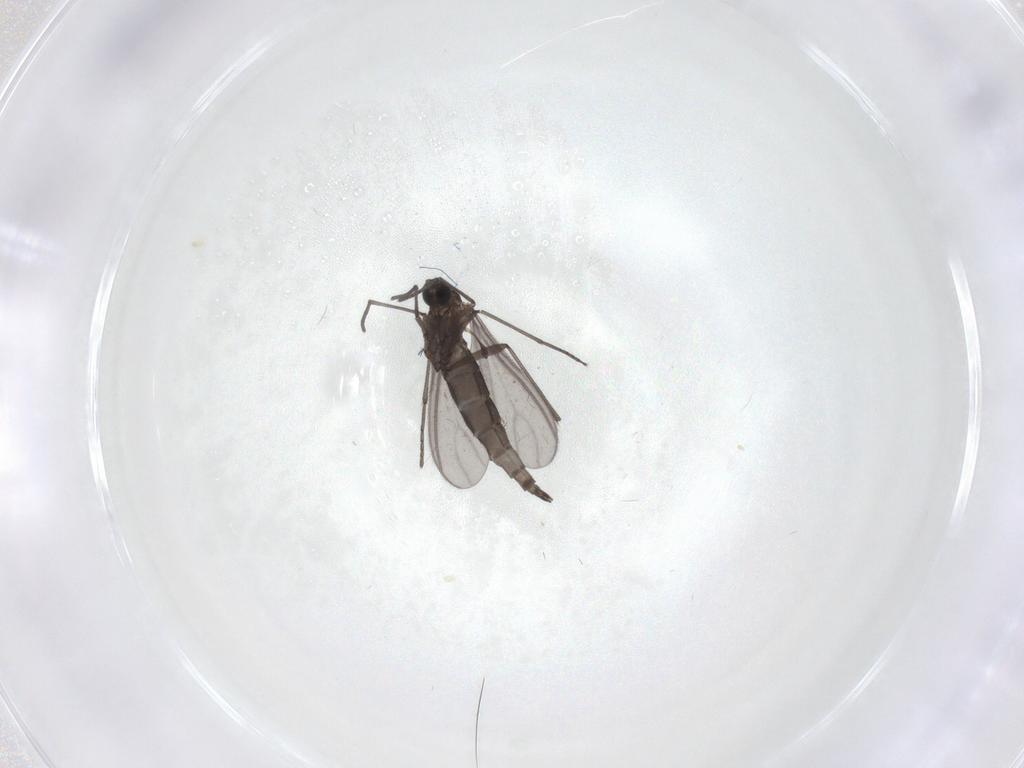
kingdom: Animalia
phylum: Arthropoda
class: Insecta
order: Diptera
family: Sciaridae
